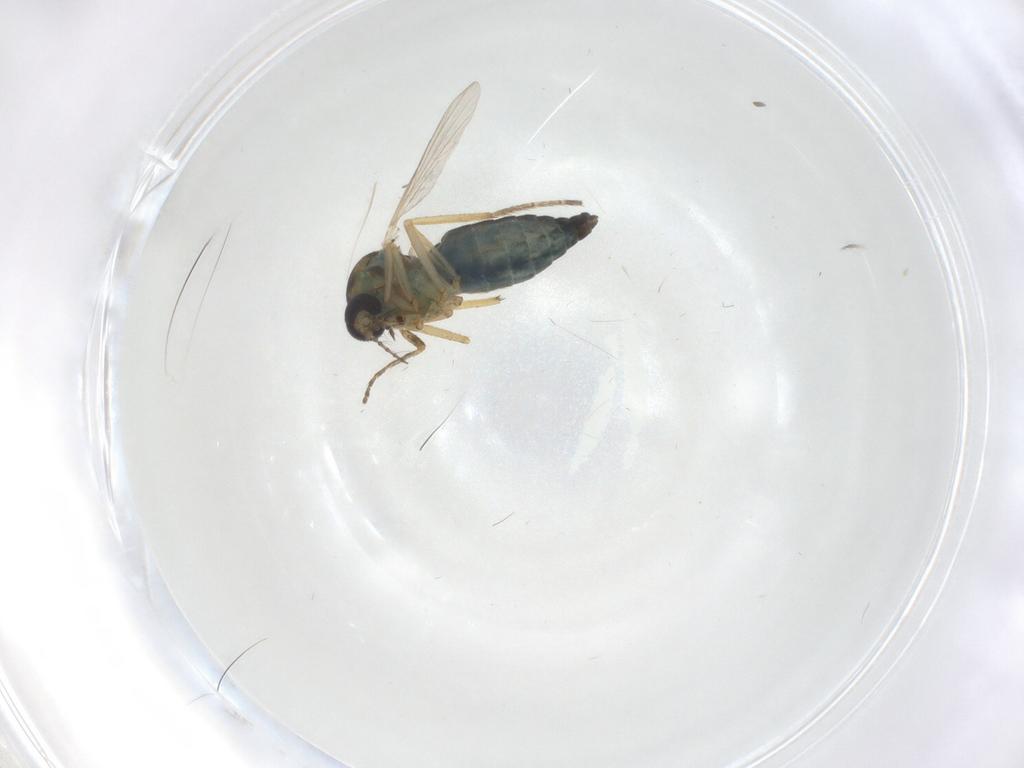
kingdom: Animalia
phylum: Arthropoda
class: Insecta
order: Diptera
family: Ceratopogonidae
